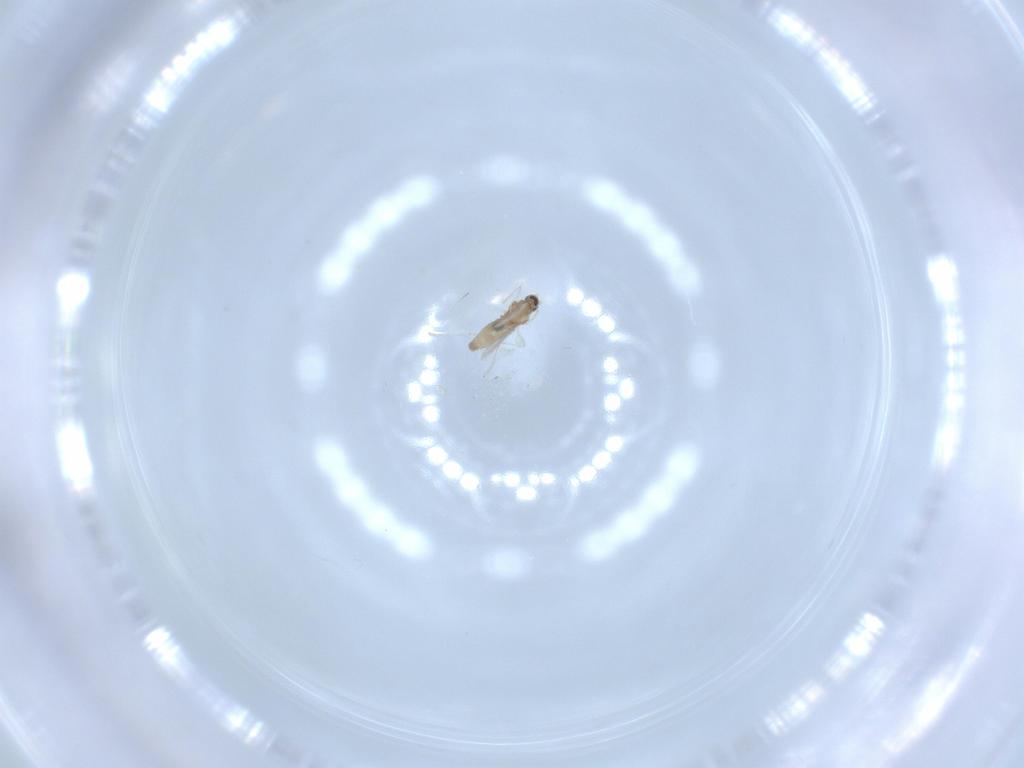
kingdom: Animalia
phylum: Arthropoda
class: Insecta
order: Diptera
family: Cecidomyiidae
